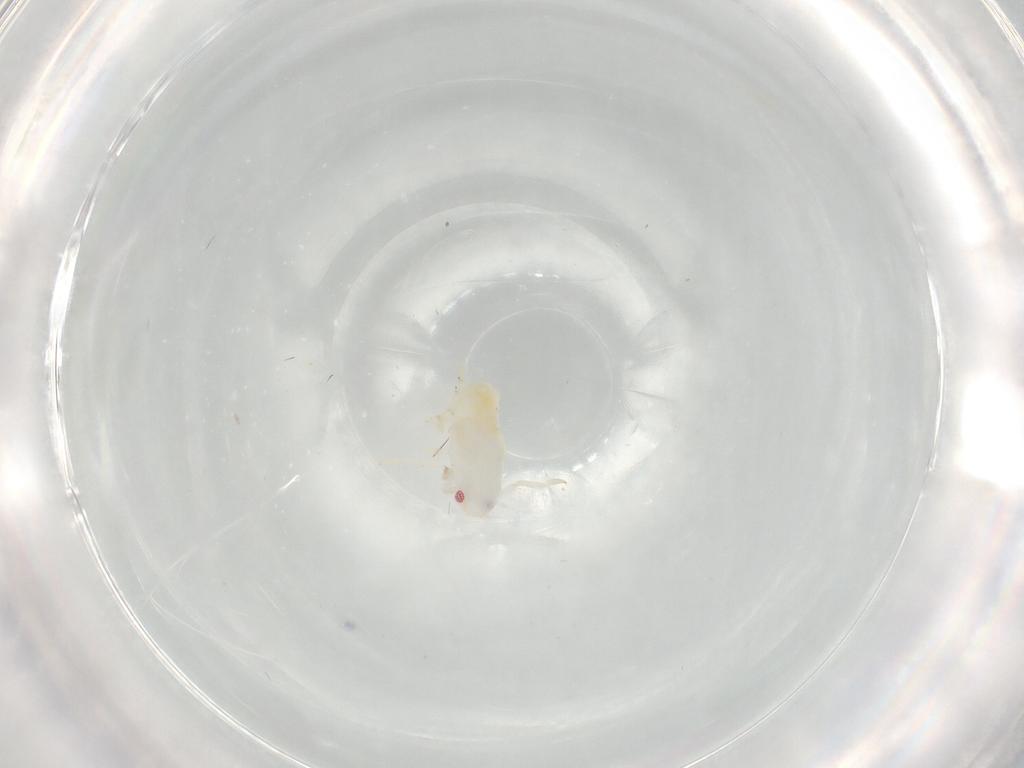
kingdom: Animalia
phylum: Arthropoda
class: Insecta
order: Hemiptera
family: Flatidae
